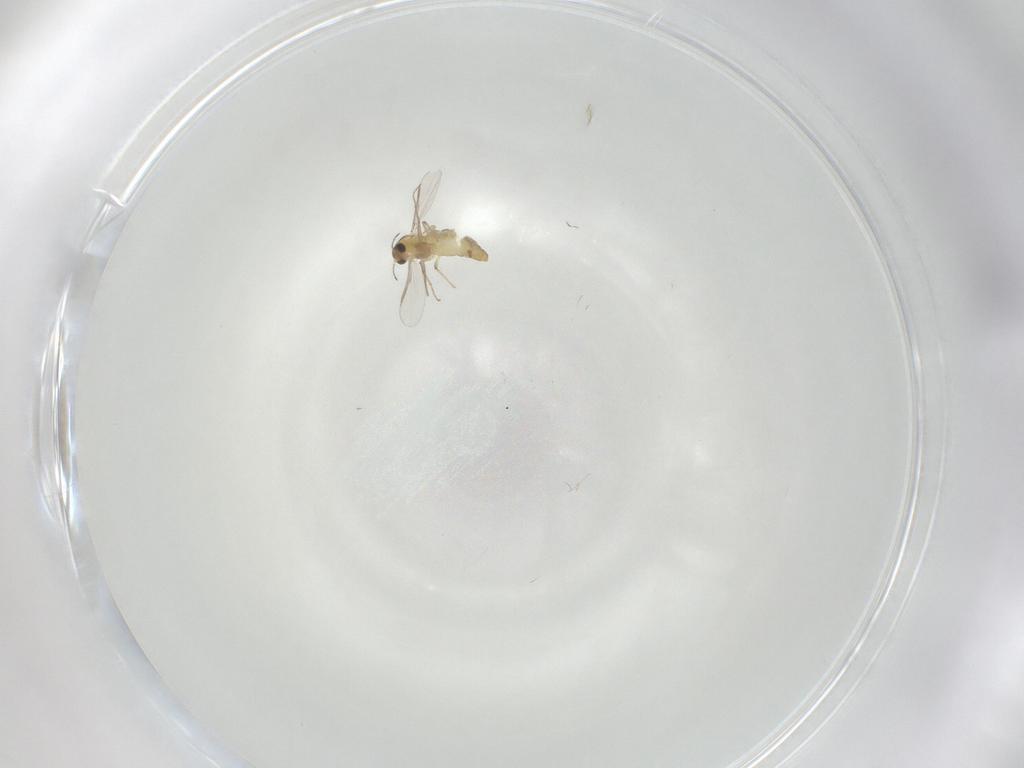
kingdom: Animalia
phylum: Arthropoda
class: Insecta
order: Diptera
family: Chironomidae
